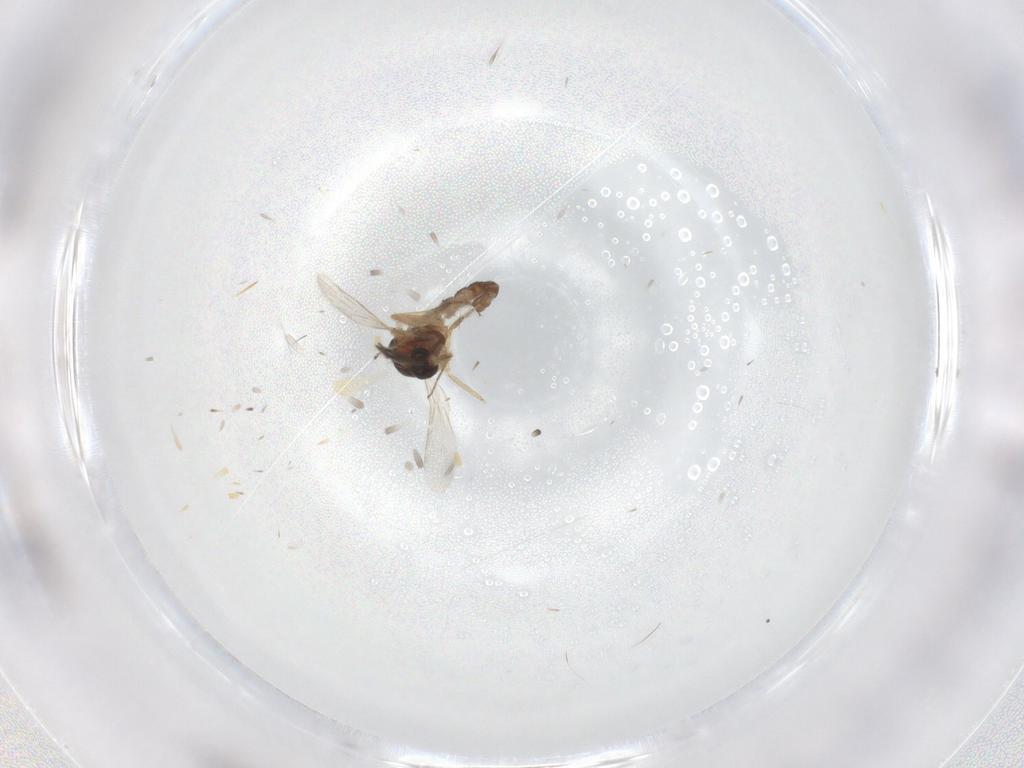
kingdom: Animalia
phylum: Arthropoda
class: Insecta
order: Diptera
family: Ceratopogonidae
